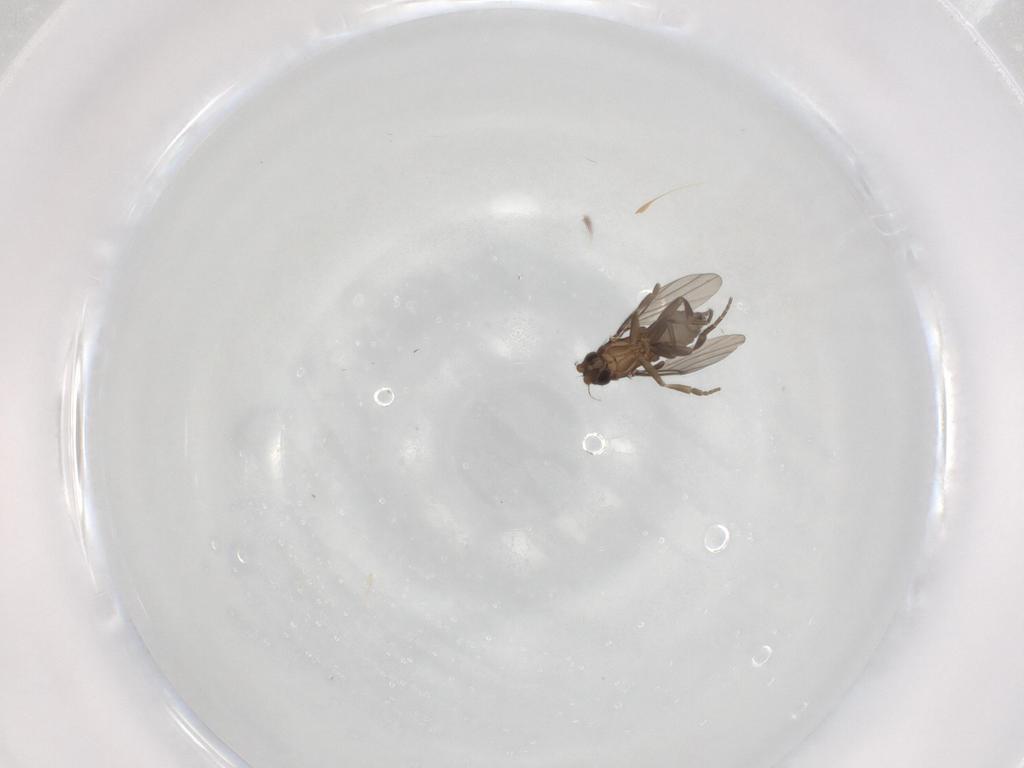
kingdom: Animalia
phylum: Arthropoda
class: Insecta
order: Diptera
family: Phoridae
